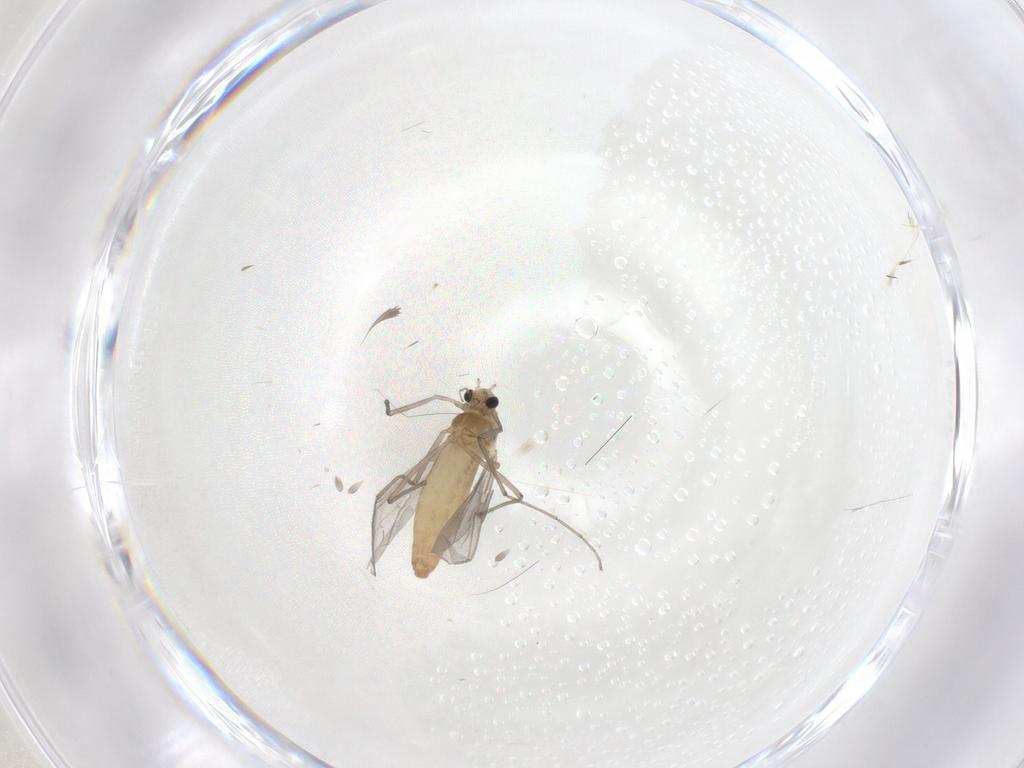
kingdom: Animalia
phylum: Arthropoda
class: Insecta
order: Diptera
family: Chironomidae
